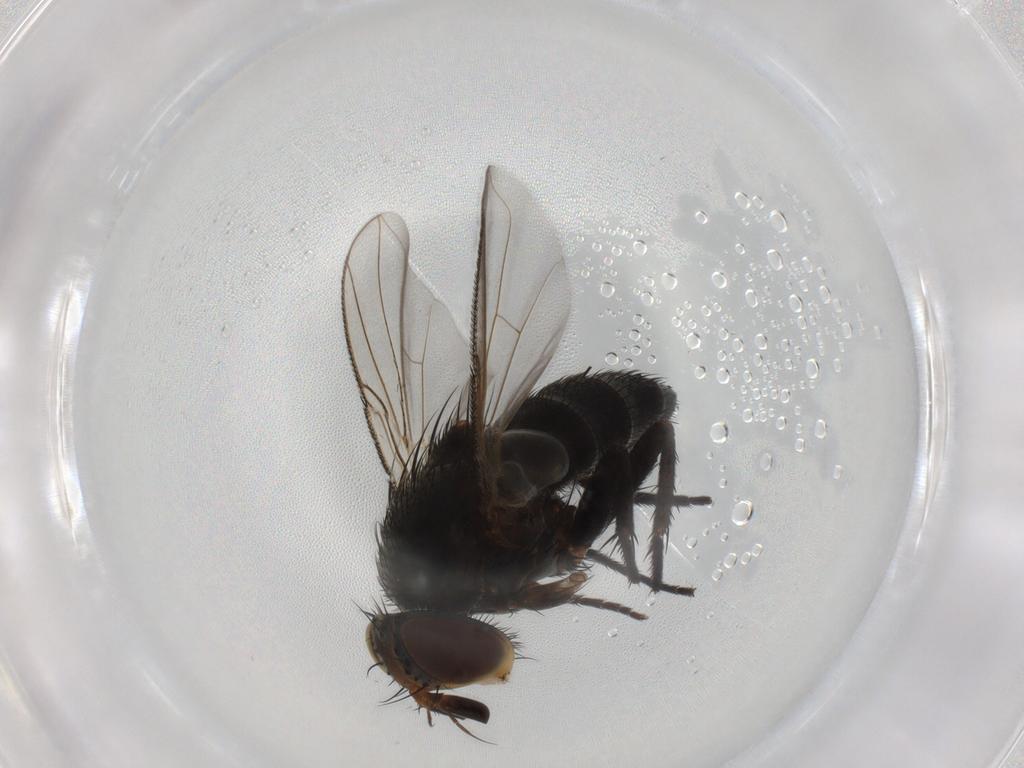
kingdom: Animalia
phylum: Arthropoda
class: Insecta
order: Diptera
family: Tachinidae
